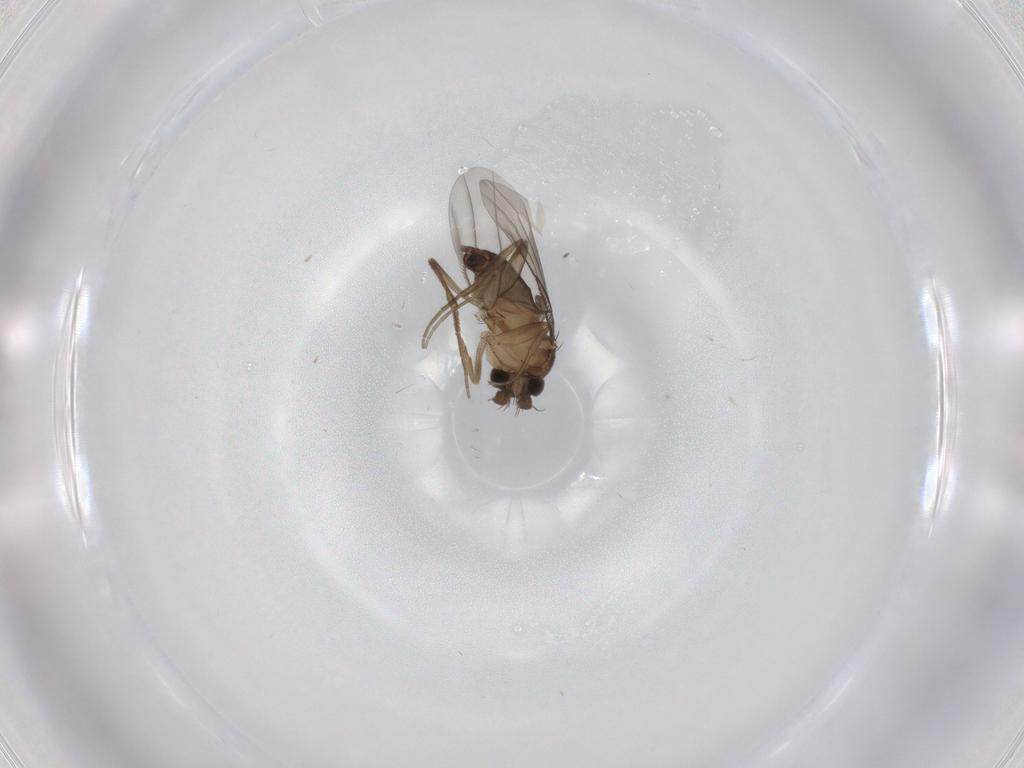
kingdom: Animalia
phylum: Arthropoda
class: Insecta
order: Diptera
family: Phoridae
